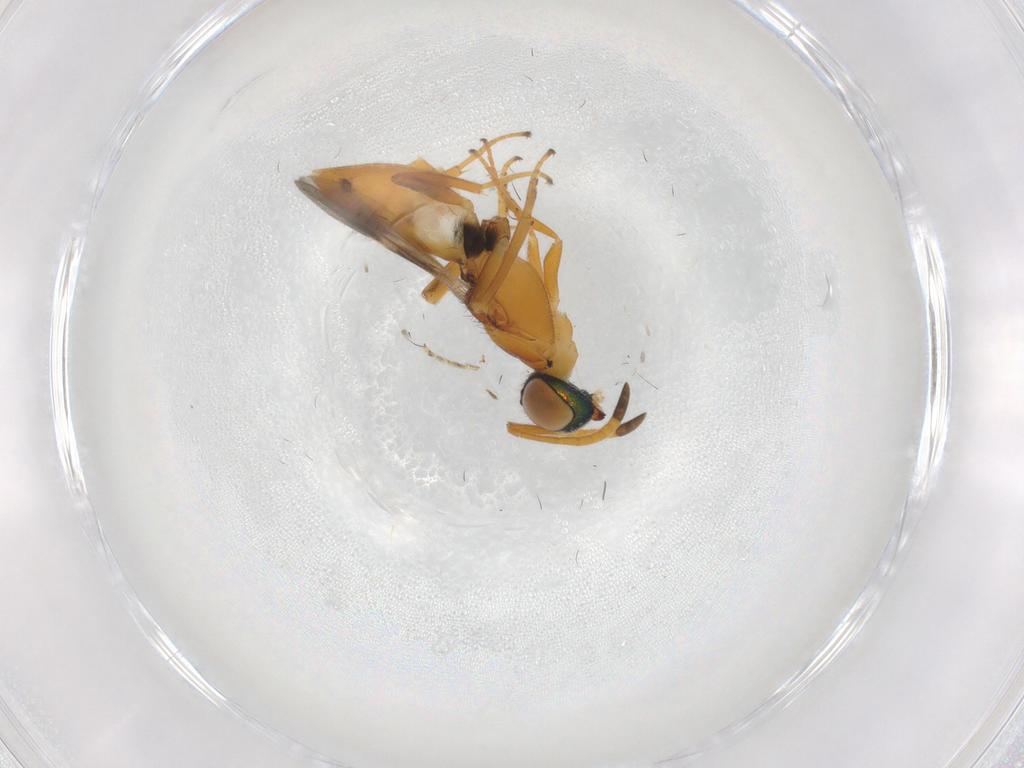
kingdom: Animalia
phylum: Arthropoda
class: Insecta
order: Hymenoptera
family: Eupelmidae
